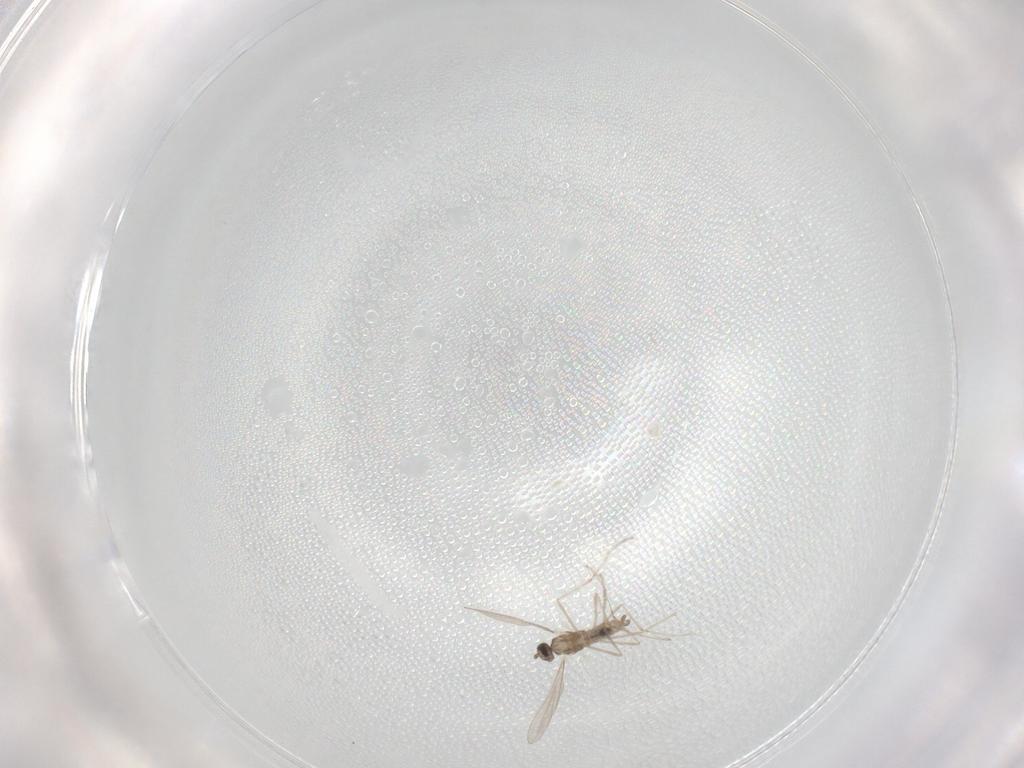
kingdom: Animalia
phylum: Arthropoda
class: Insecta
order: Diptera
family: Cecidomyiidae
